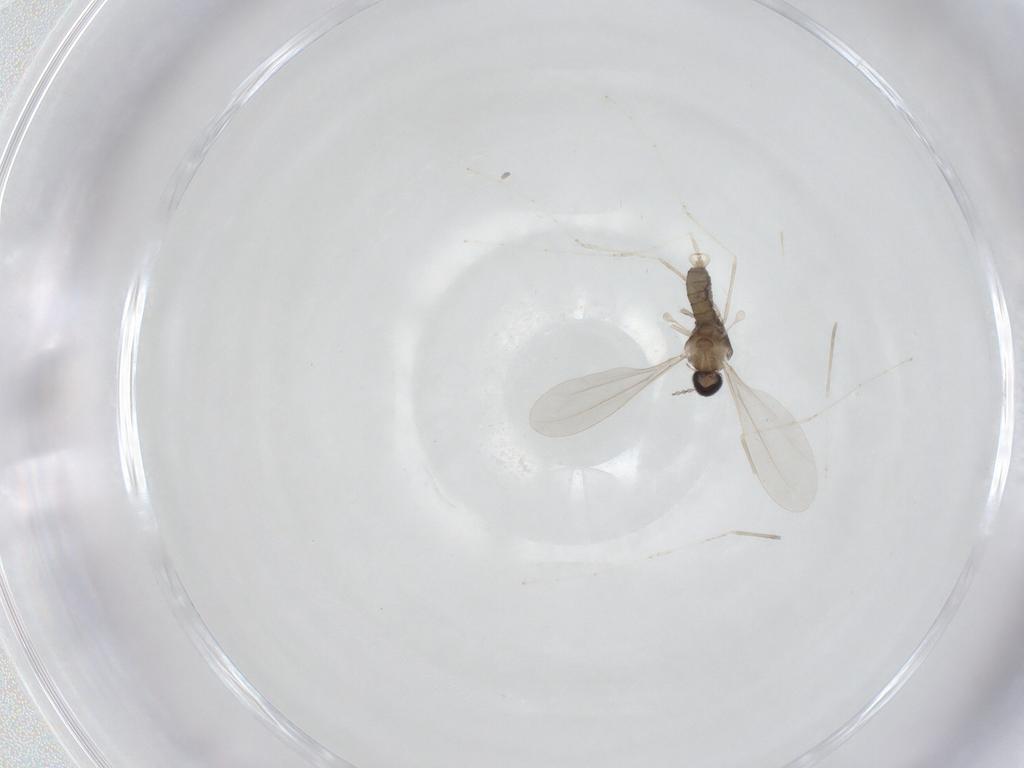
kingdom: Animalia
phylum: Arthropoda
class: Insecta
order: Diptera
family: Cecidomyiidae
